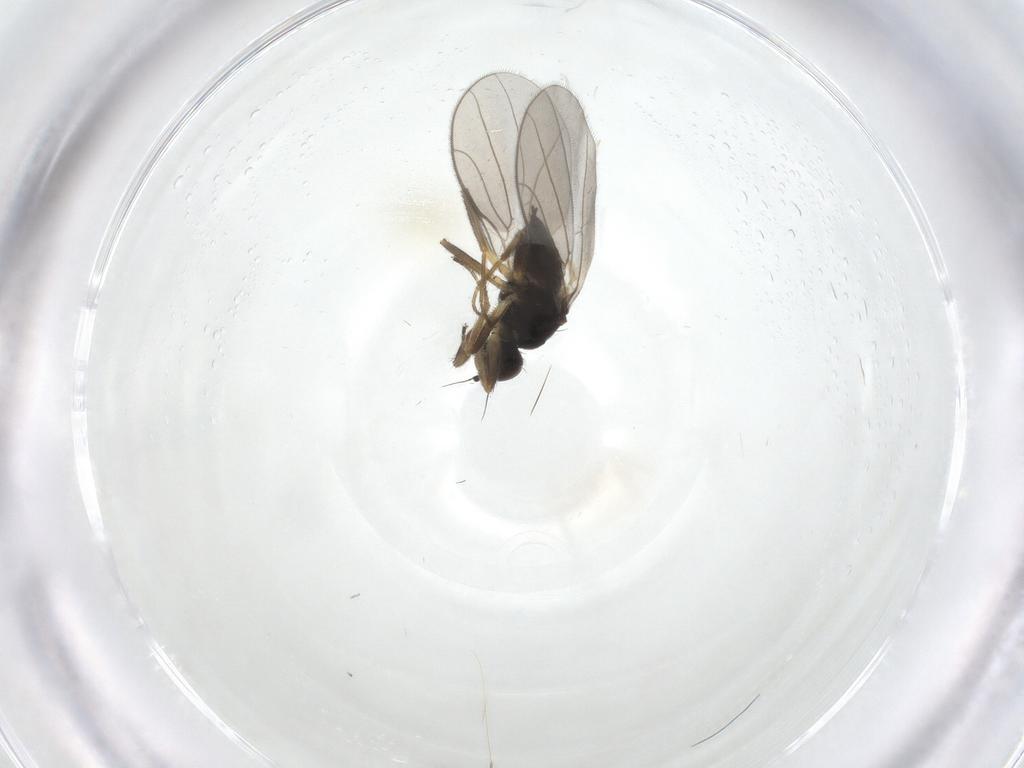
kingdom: Animalia
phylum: Arthropoda
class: Insecta
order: Diptera
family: Hybotidae
